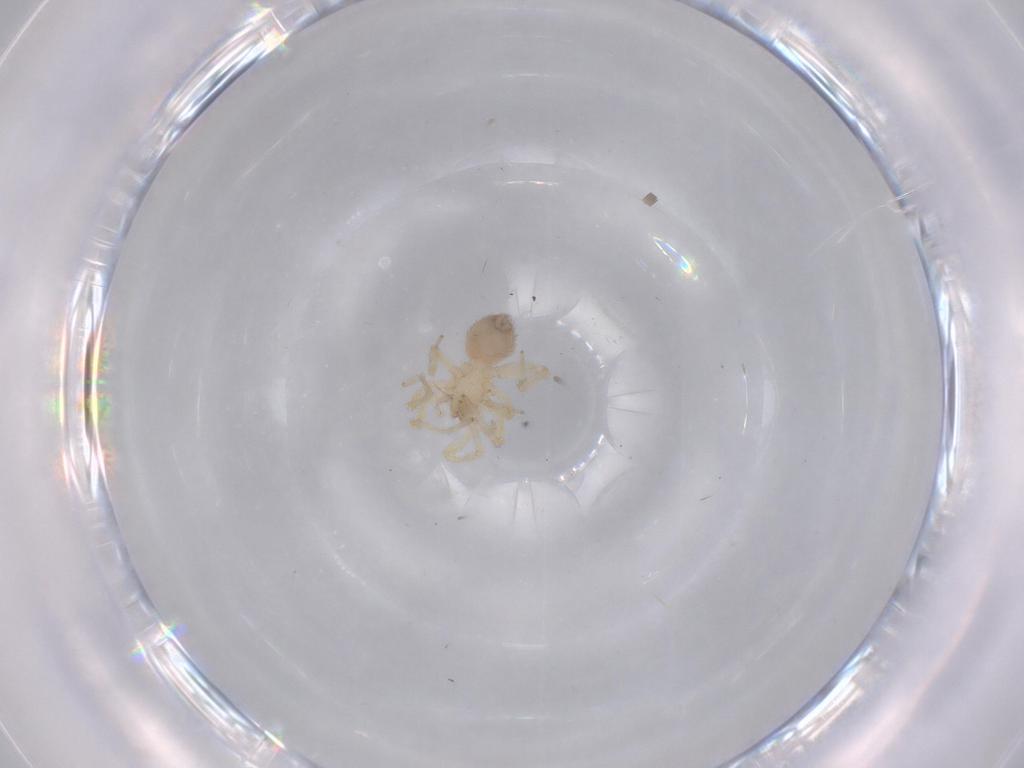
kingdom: Animalia
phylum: Arthropoda
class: Arachnida
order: Araneae
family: Oonopidae
